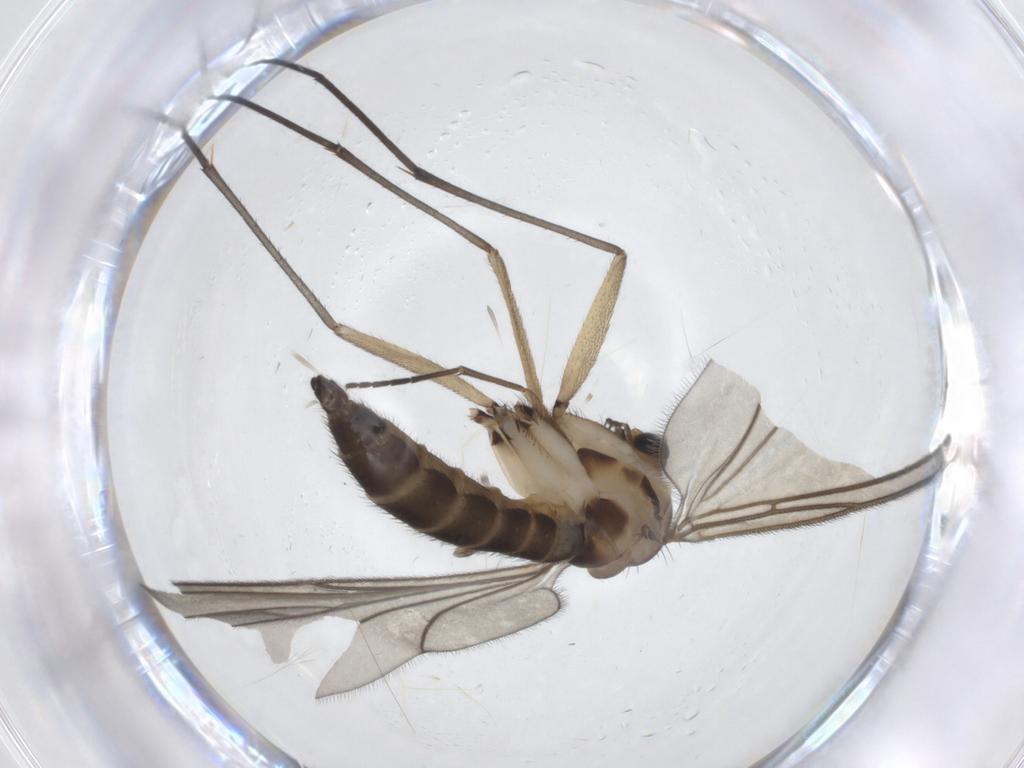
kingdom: Animalia
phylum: Arthropoda
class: Insecta
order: Diptera
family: Sciaridae
